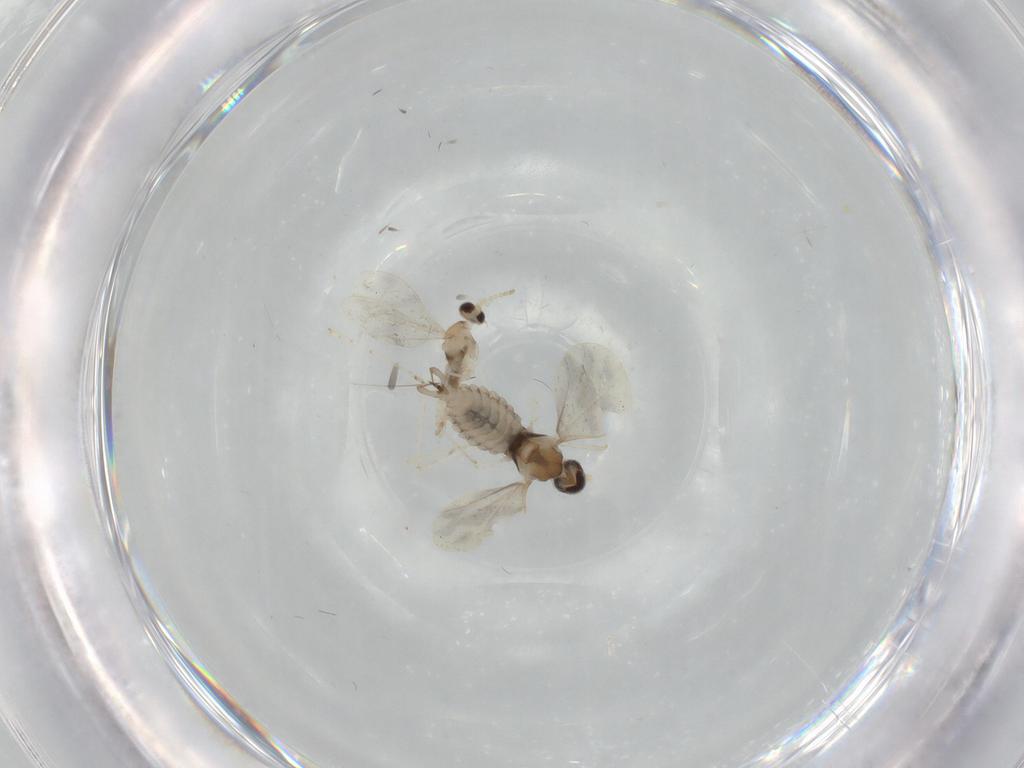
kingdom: Animalia
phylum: Arthropoda
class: Insecta
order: Diptera
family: Cecidomyiidae
